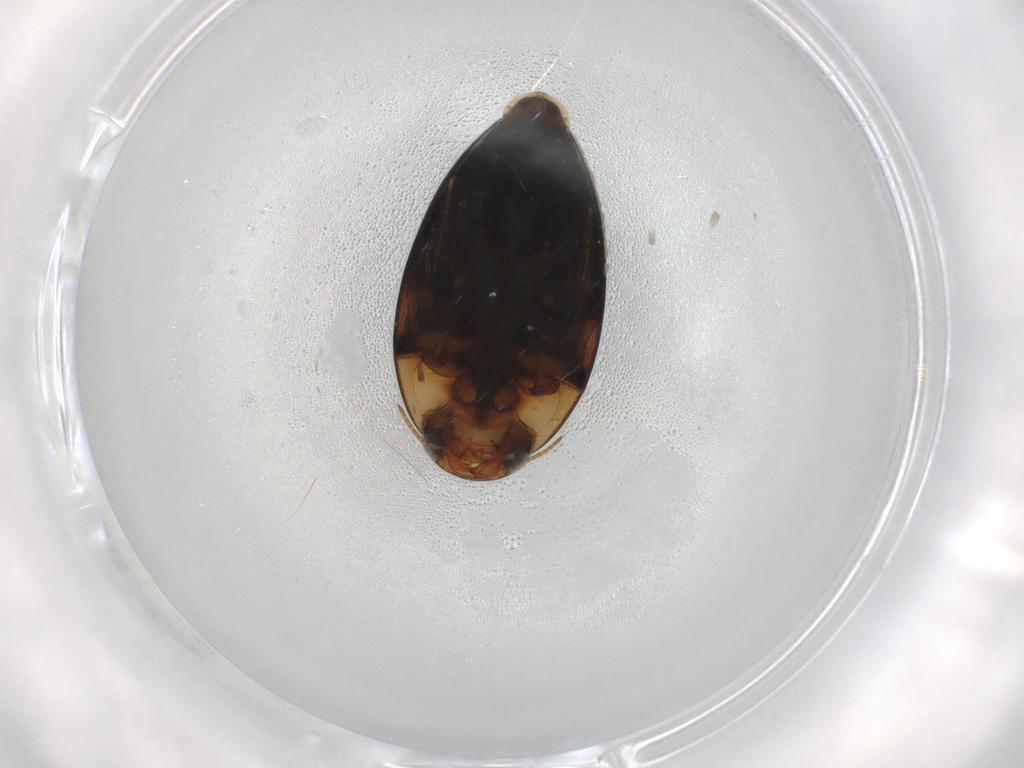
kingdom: Animalia
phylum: Arthropoda
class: Insecta
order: Coleoptera
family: Noteridae
